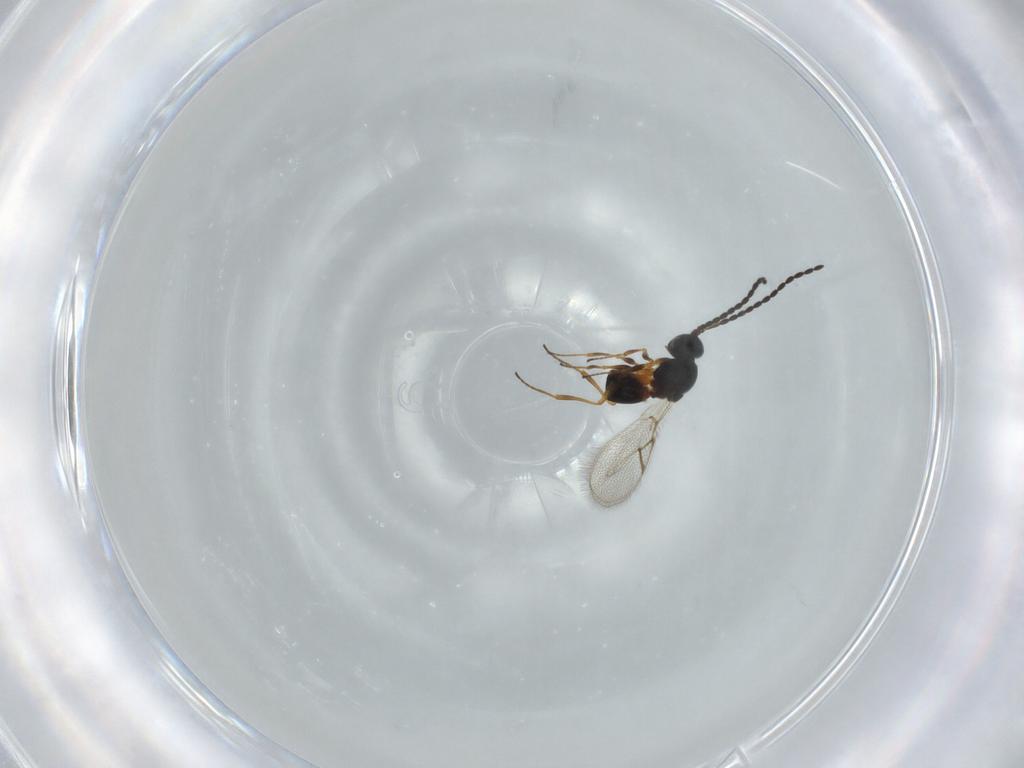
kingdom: Animalia
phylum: Arthropoda
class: Insecta
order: Hymenoptera
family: Figitidae
